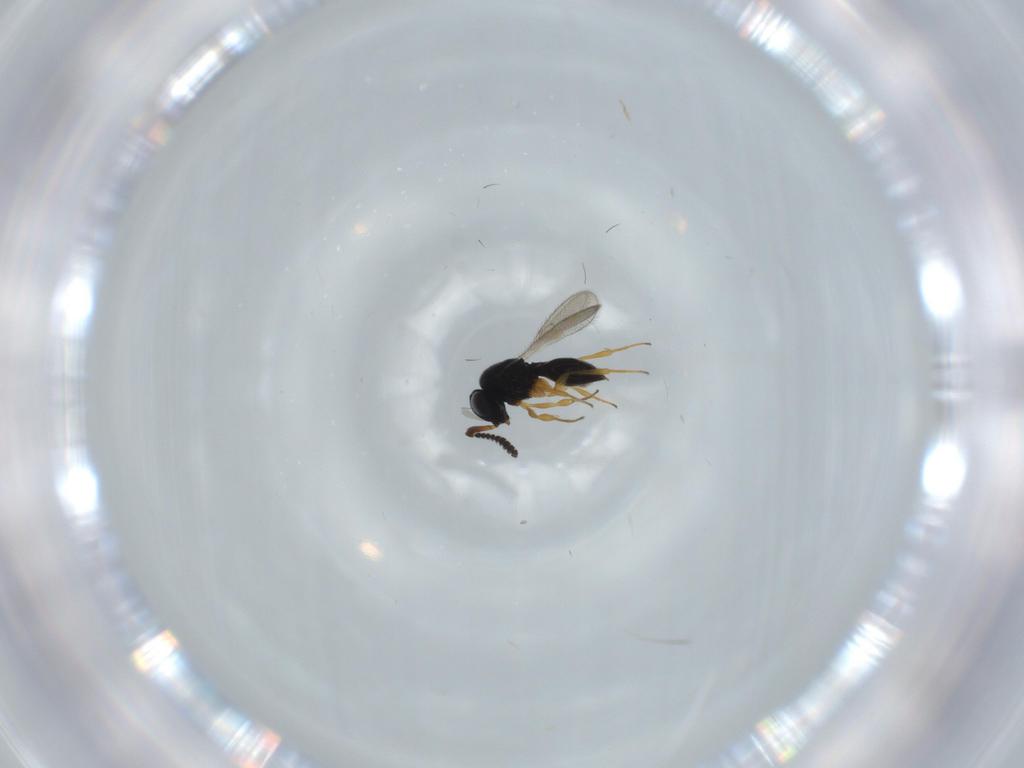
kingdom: Animalia
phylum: Arthropoda
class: Insecta
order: Hymenoptera
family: Scelionidae
